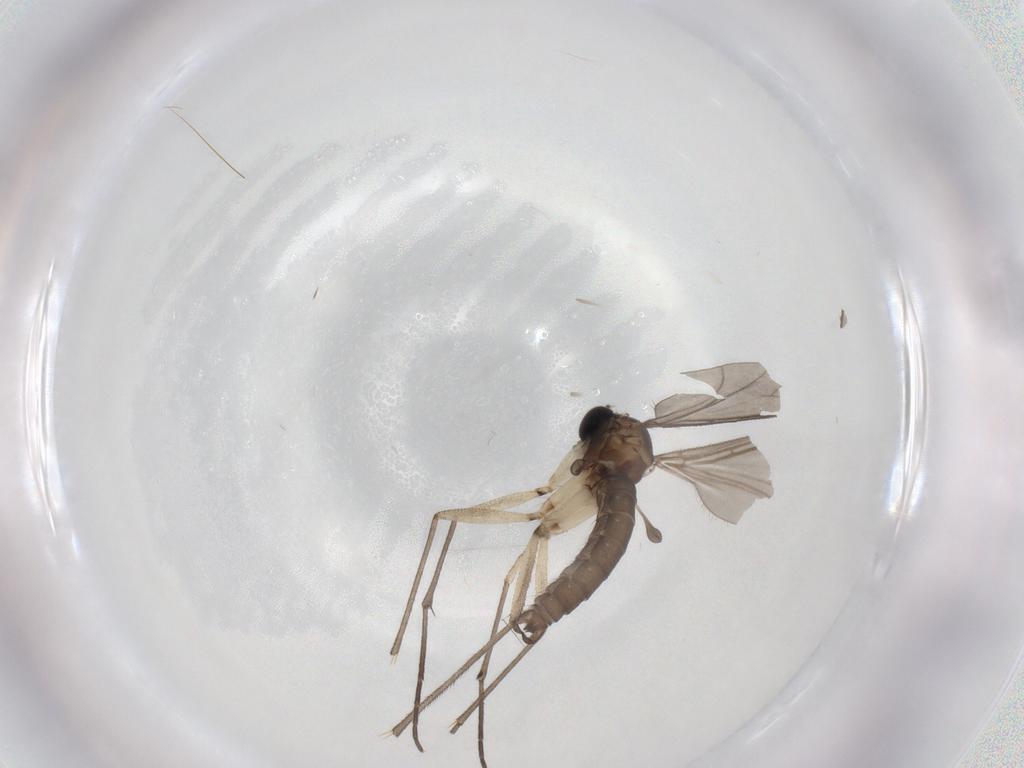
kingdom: Animalia
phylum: Arthropoda
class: Insecta
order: Diptera
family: Sciaridae
